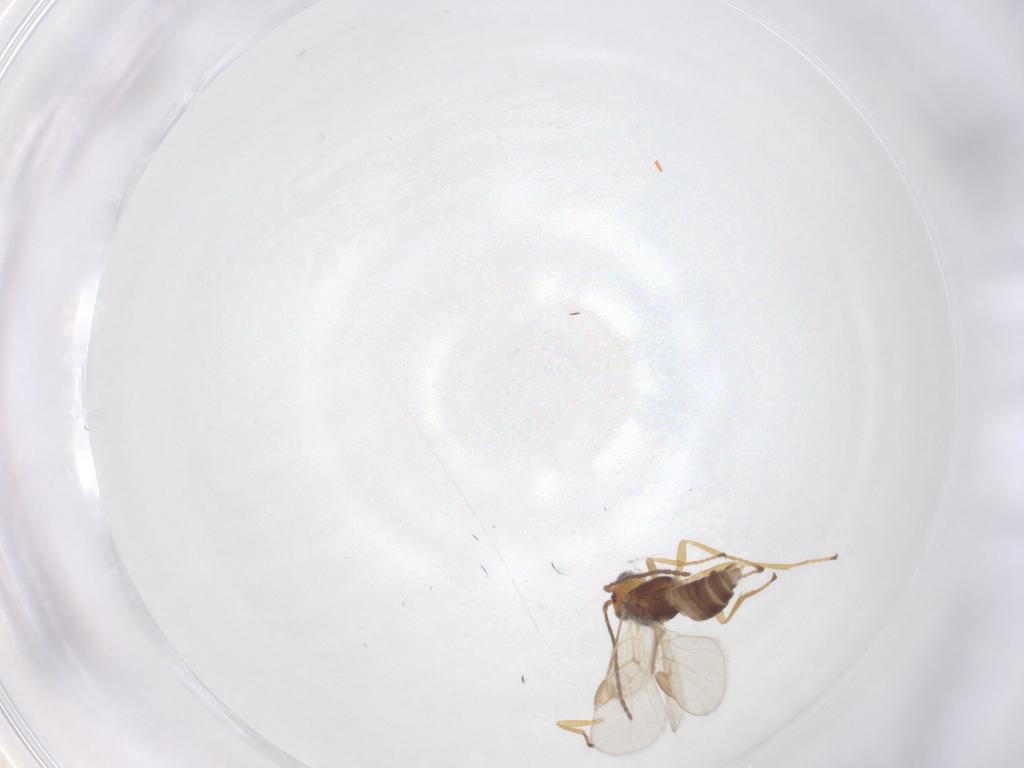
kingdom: Animalia
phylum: Arthropoda
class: Insecta
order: Hymenoptera
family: Braconidae
